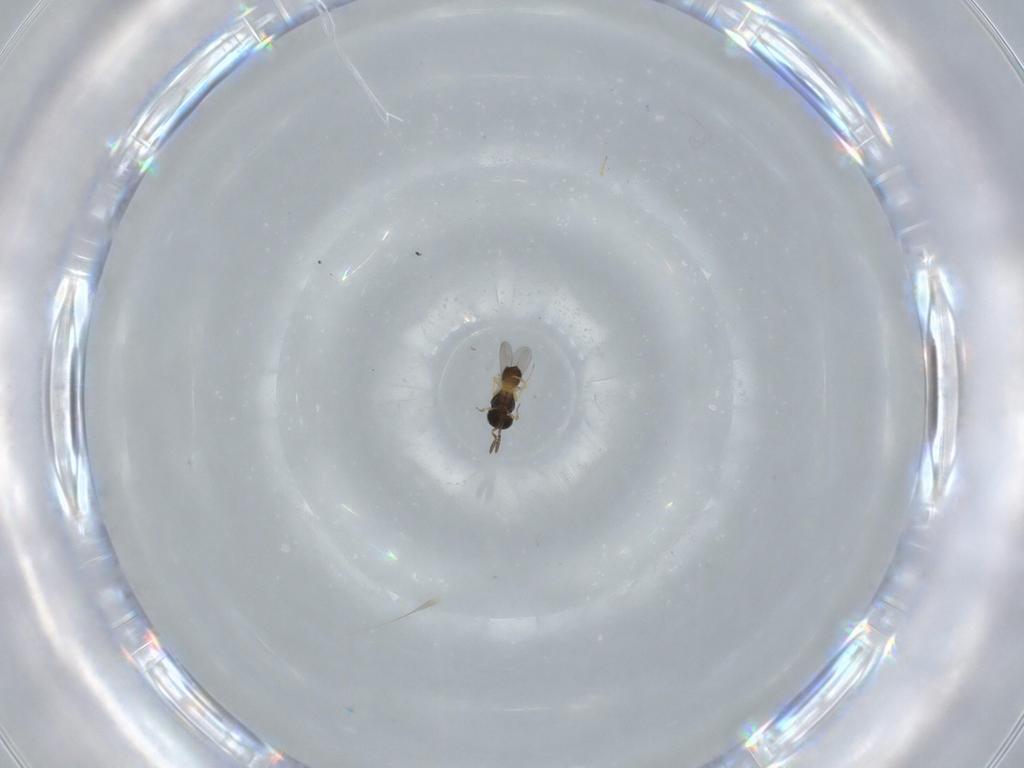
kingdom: Animalia
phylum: Arthropoda
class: Insecta
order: Hymenoptera
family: Scelionidae
